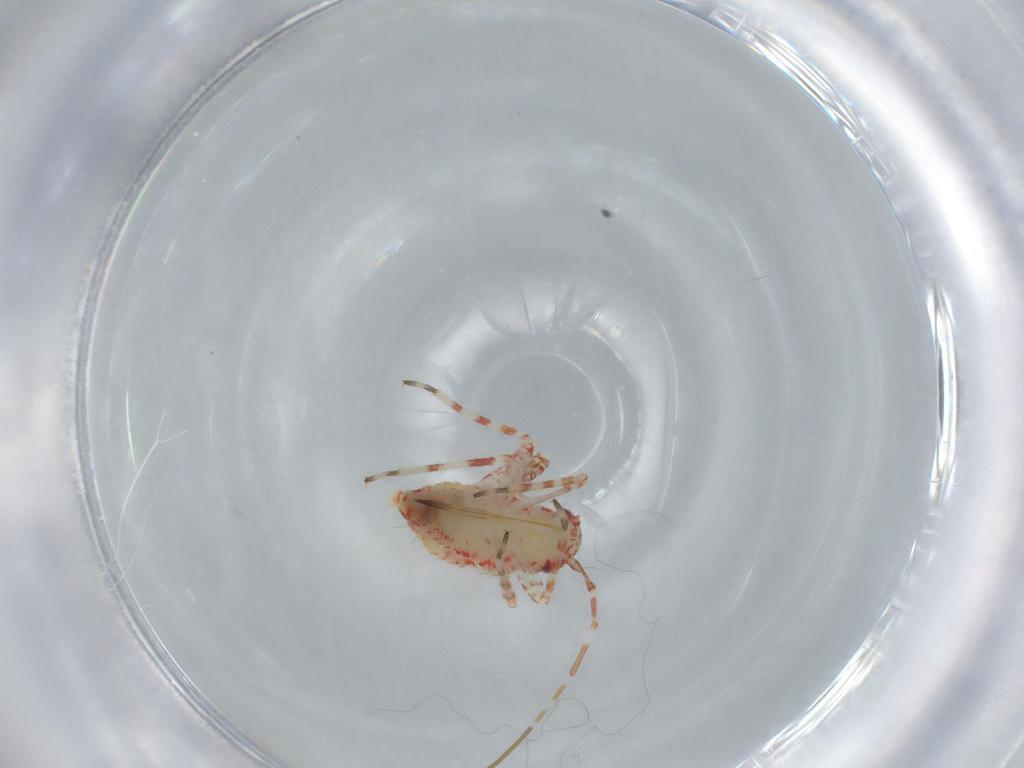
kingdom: Animalia
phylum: Arthropoda
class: Insecta
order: Hemiptera
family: Miridae
